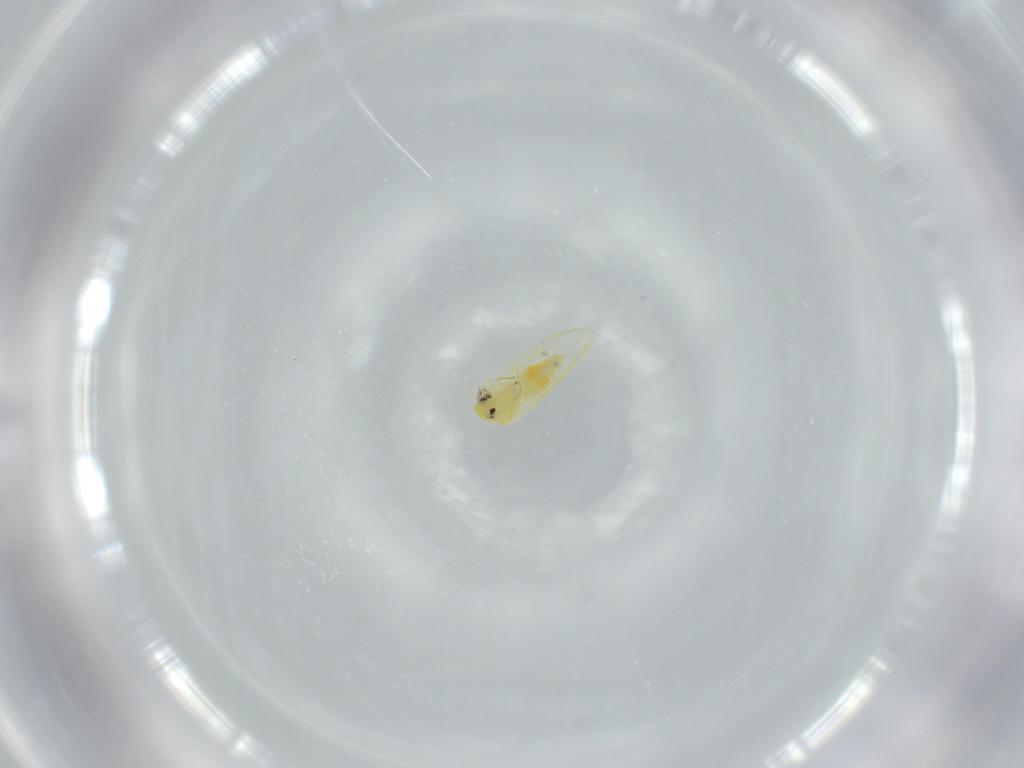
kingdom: Animalia
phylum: Arthropoda
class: Insecta
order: Hemiptera
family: Aleyrodidae
